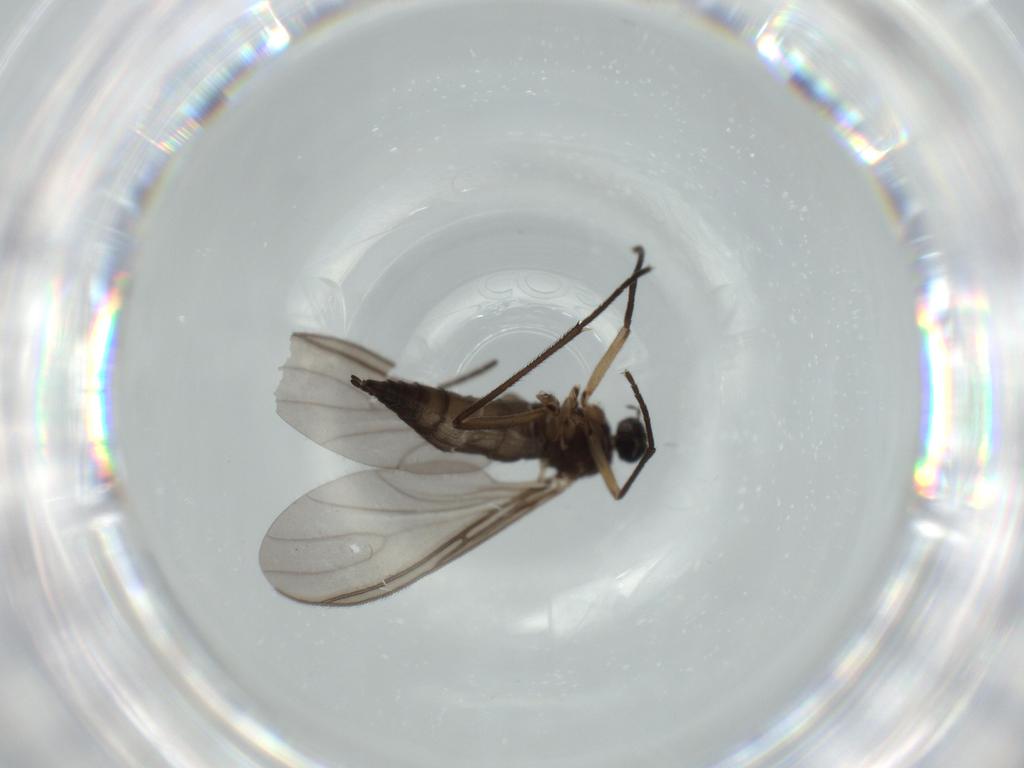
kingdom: Animalia
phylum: Arthropoda
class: Insecta
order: Diptera
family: Sciaridae
